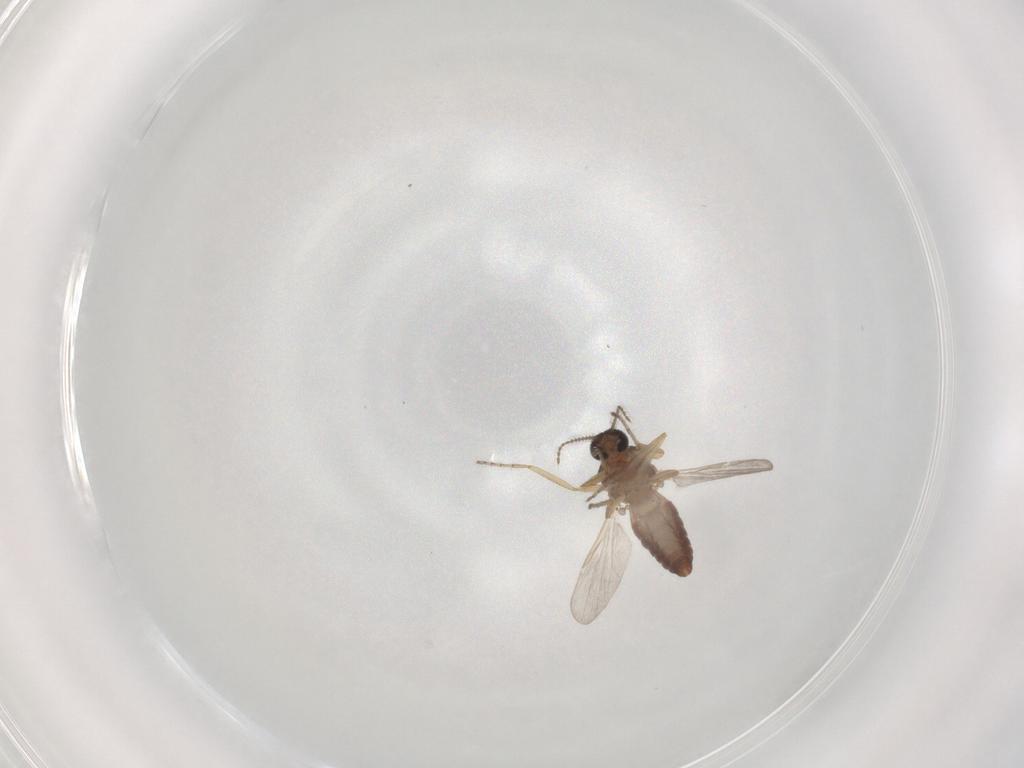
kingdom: Animalia
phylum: Arthropoda
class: Insecta
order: Diptera
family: Ceratopogonidae
